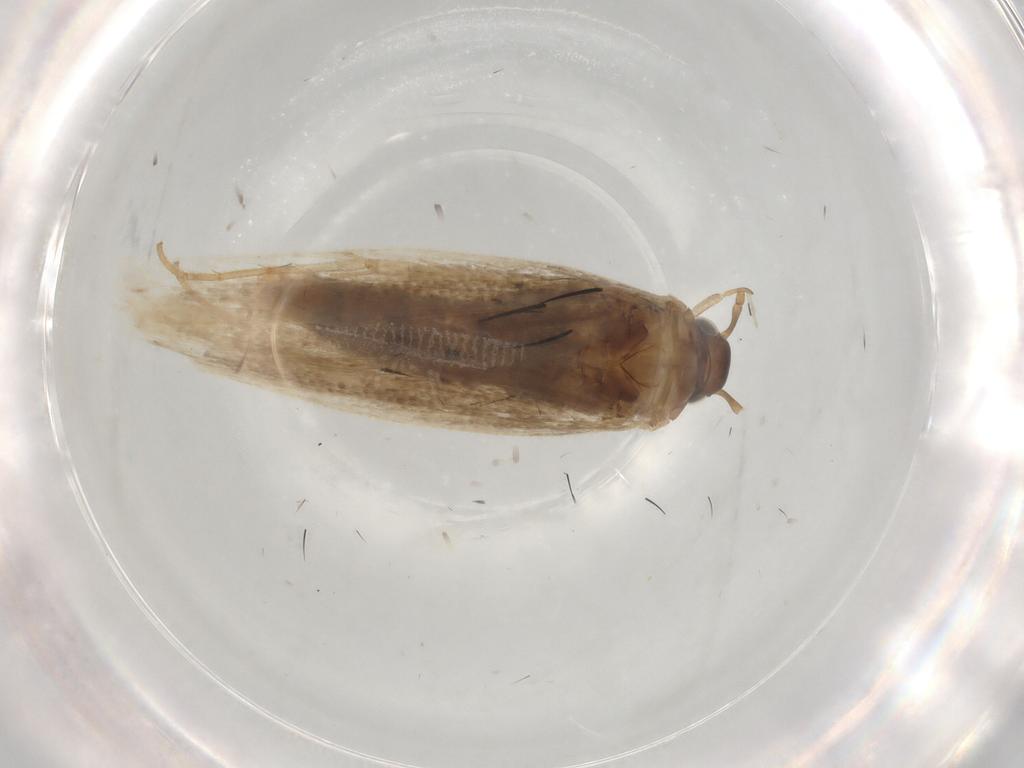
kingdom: Animalia
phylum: Arthropoda
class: Insecta
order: Lepidoptera
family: Gelechiidae
